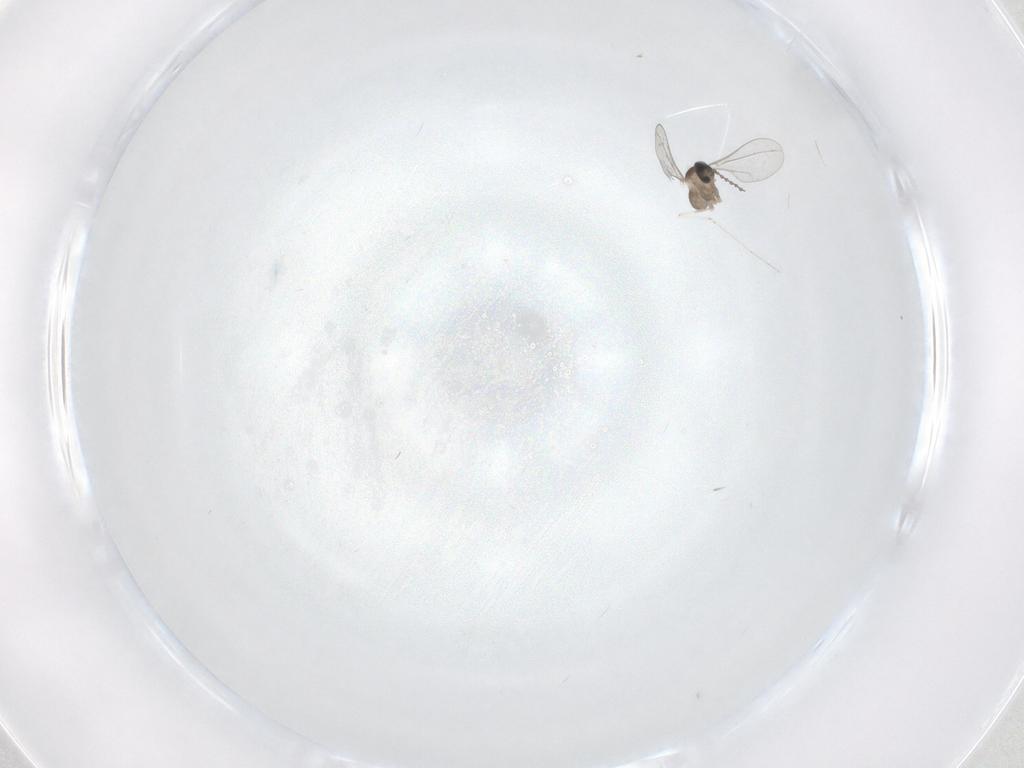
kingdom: Animalia
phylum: Arthropoda
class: Insecta
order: Diptera
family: Cecidomyiidae
